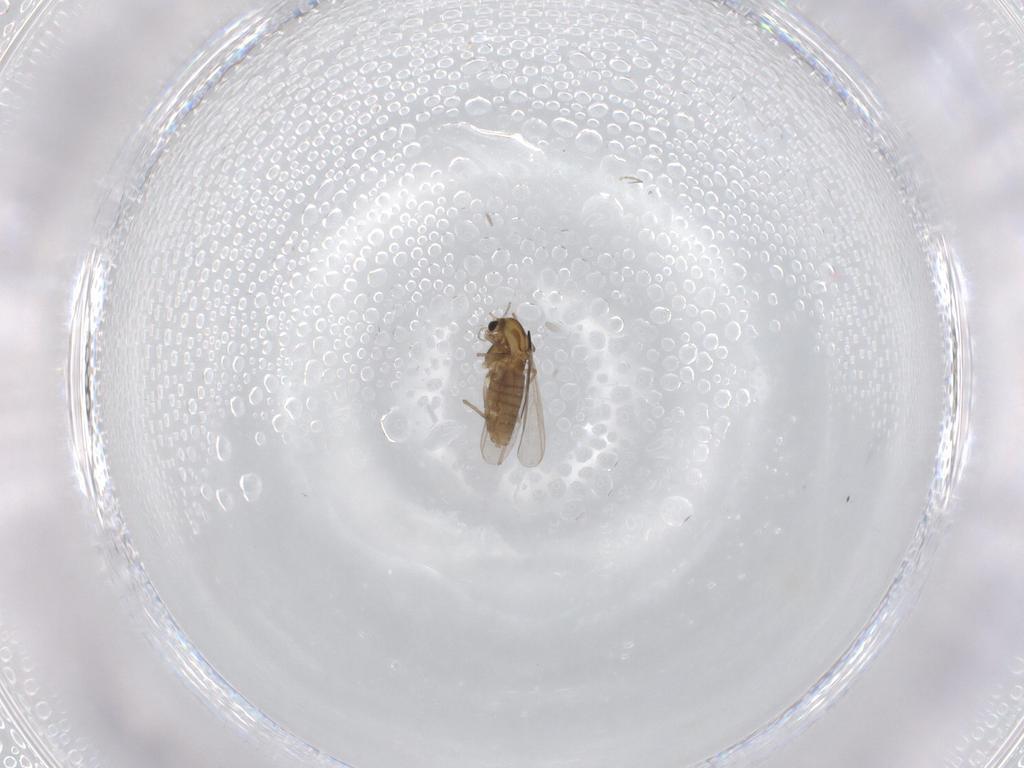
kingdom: Animalia
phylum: Arthropoda
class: Insecta
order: Diptera
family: Chironomidae
